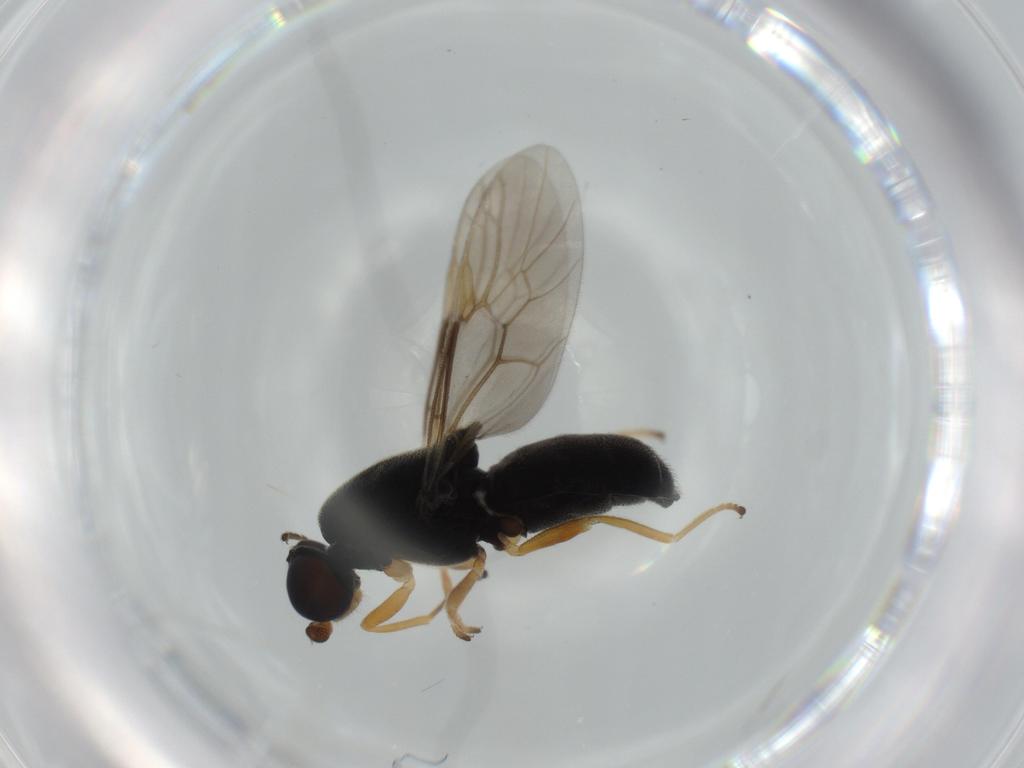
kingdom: Animalia
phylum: Arthropoda
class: Insecta
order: Diptera
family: Stratiomyidae
